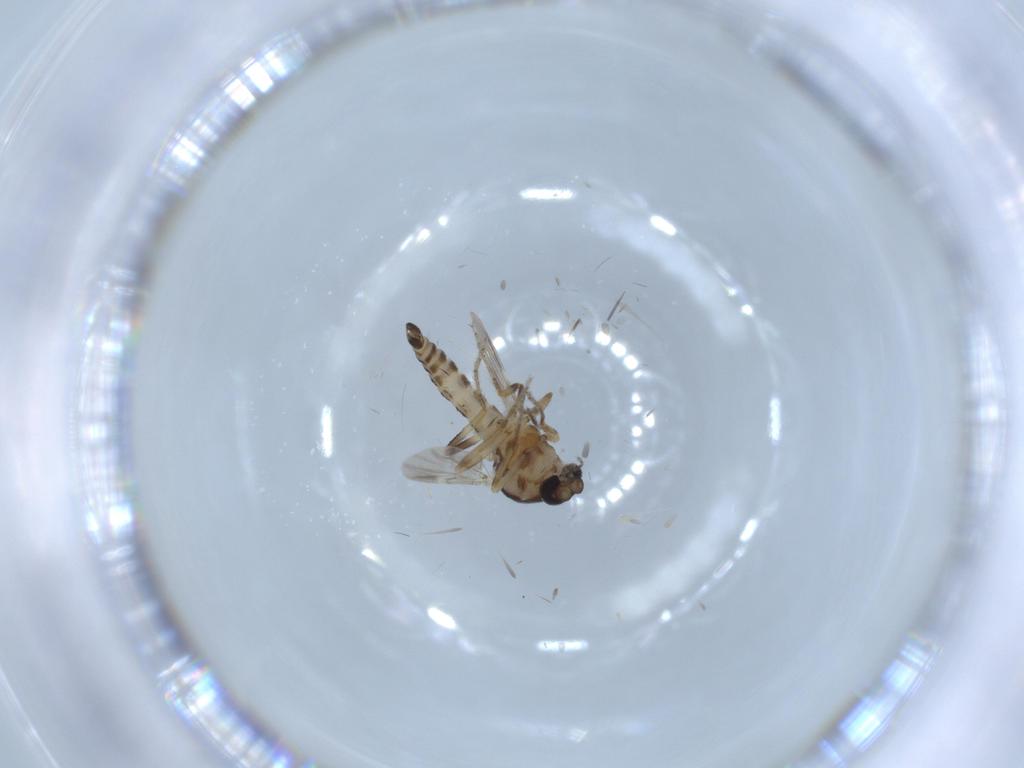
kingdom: Animalia
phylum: Arthropoda
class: Insecta
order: Diptera
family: Ceratopogonidae
